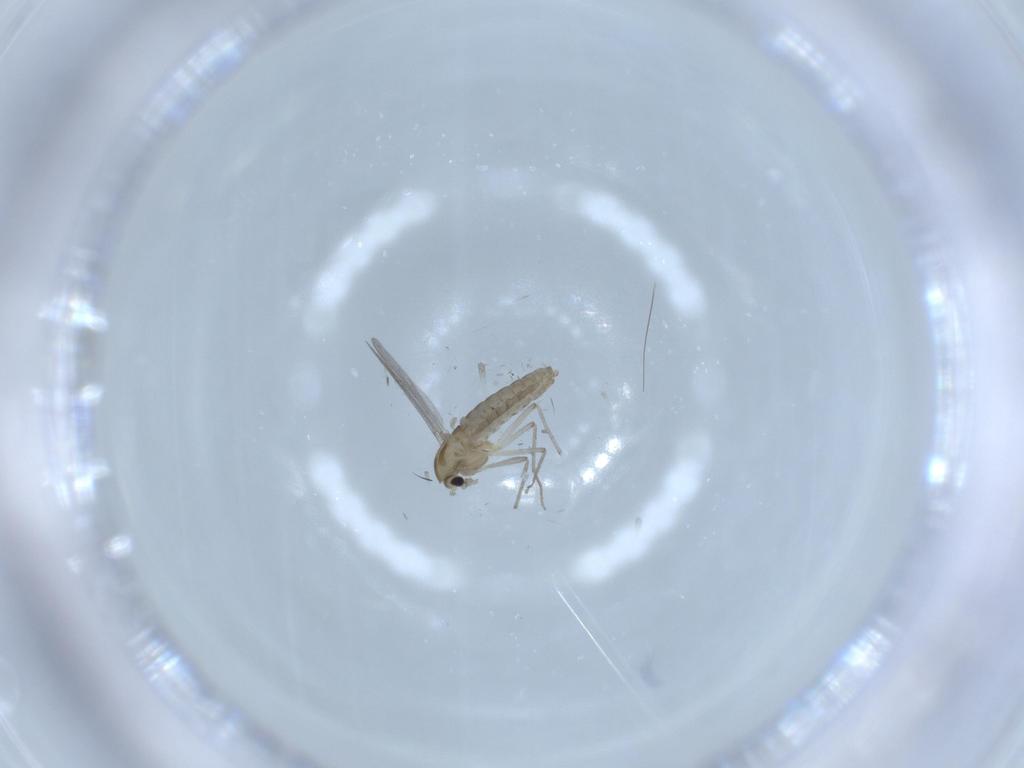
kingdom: Animalia
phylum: Arthropoda
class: Insecta
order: Diptera
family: Chironomidae
